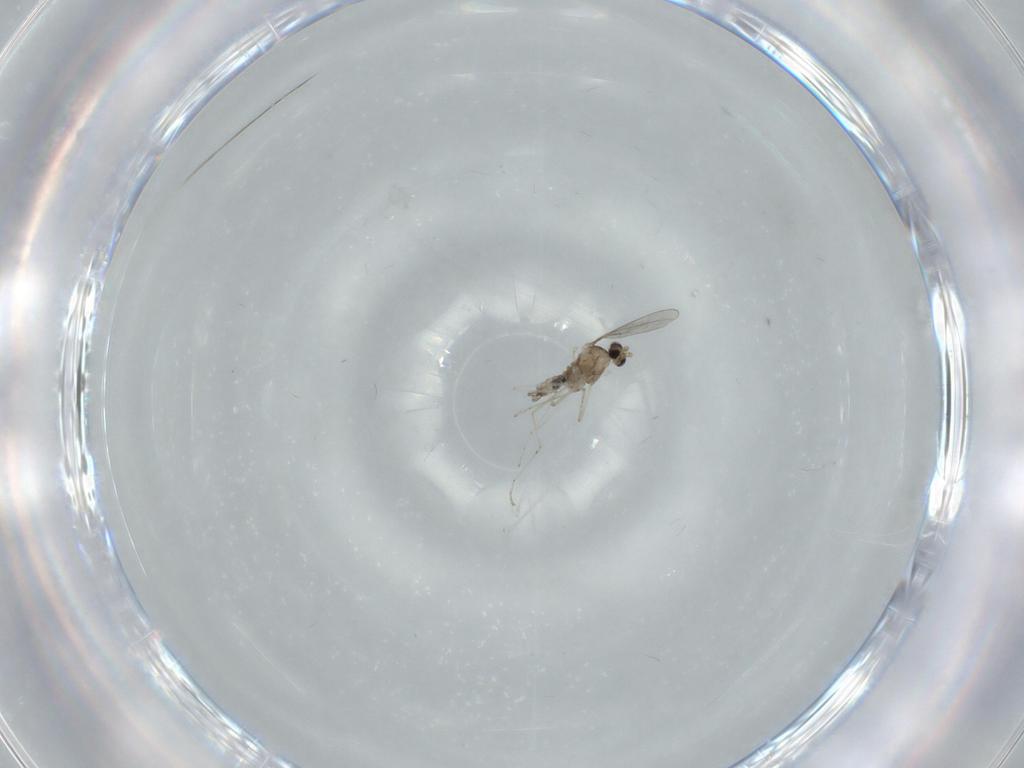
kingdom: Animalia
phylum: Arthropoda
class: Insecta
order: Diptera
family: Cecidomyiidae
